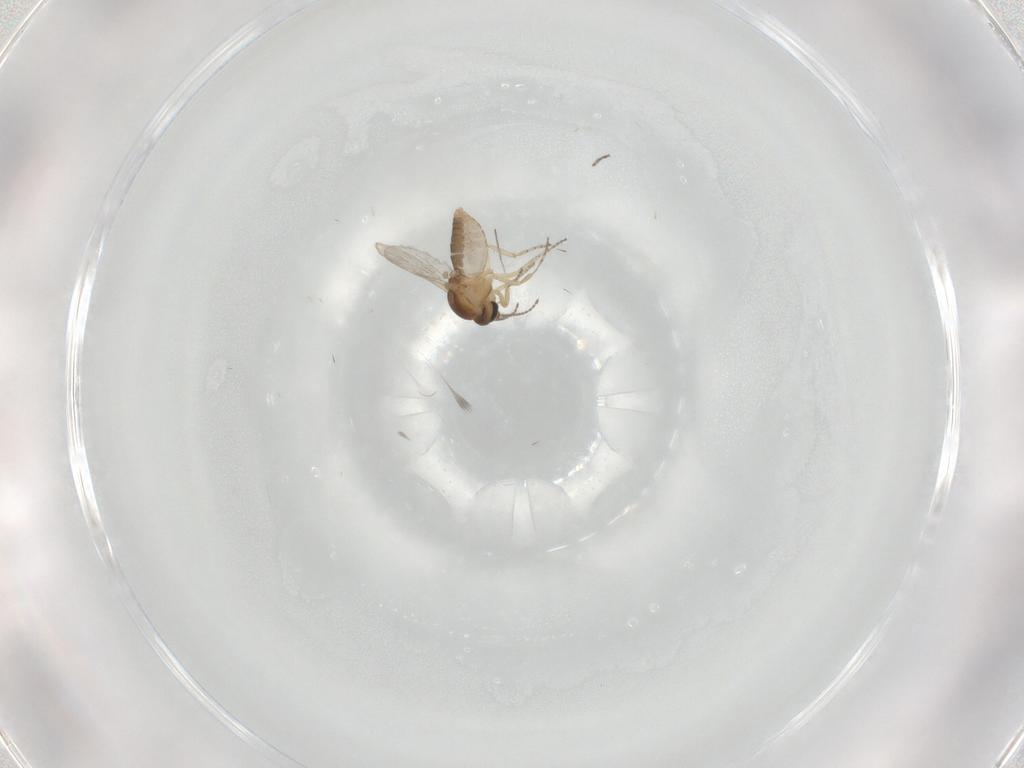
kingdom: Animalia
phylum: Arthropoda
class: Insecta
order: Diptera
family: Ceratopogonidae
